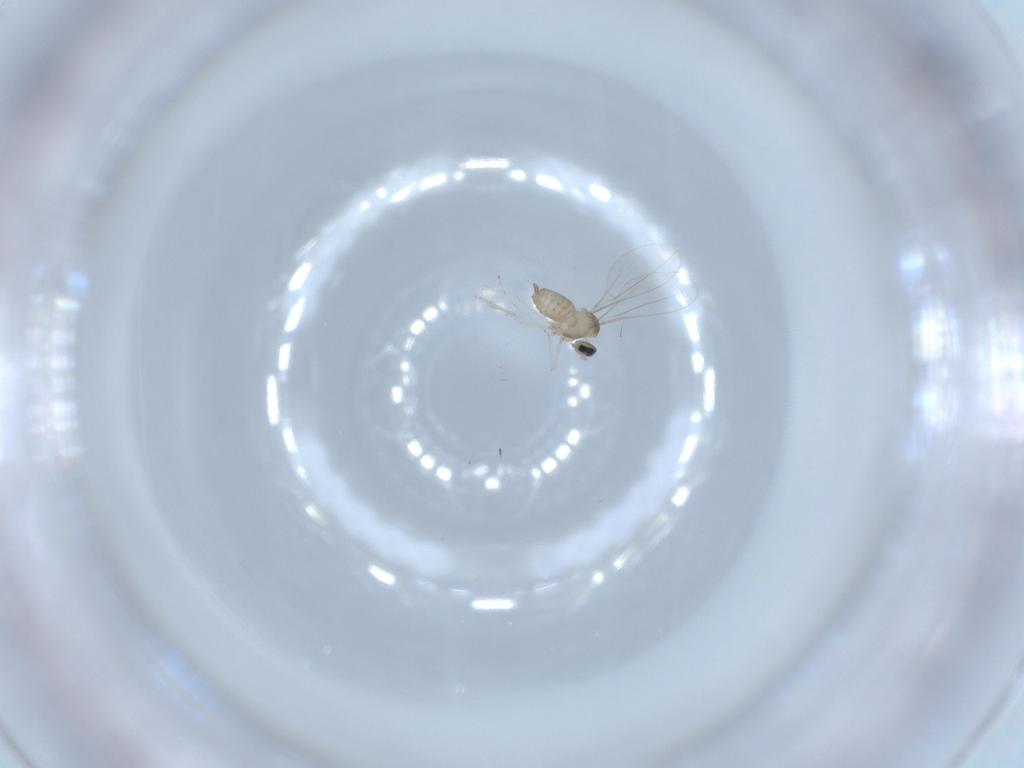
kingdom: Animalia
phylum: Arthropoda
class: Insecta
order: Diptera
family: Cecidomyiidae
